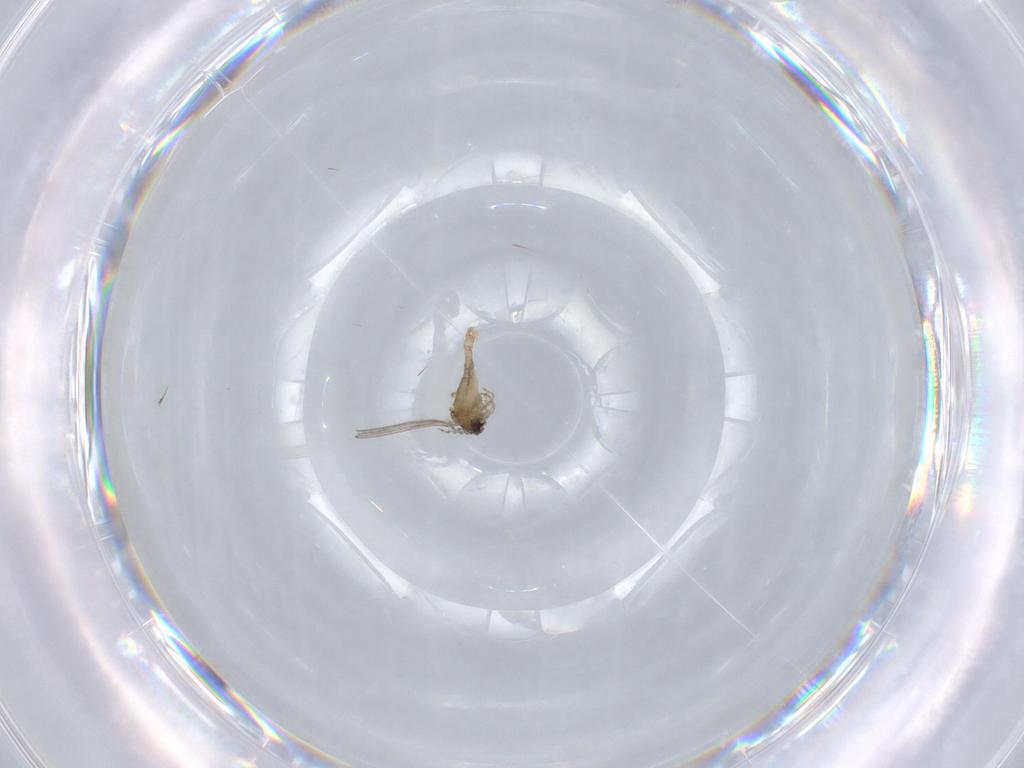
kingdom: Animalia
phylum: Arthropoda
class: Insecta
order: Diptera
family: Cecidomyiidae
